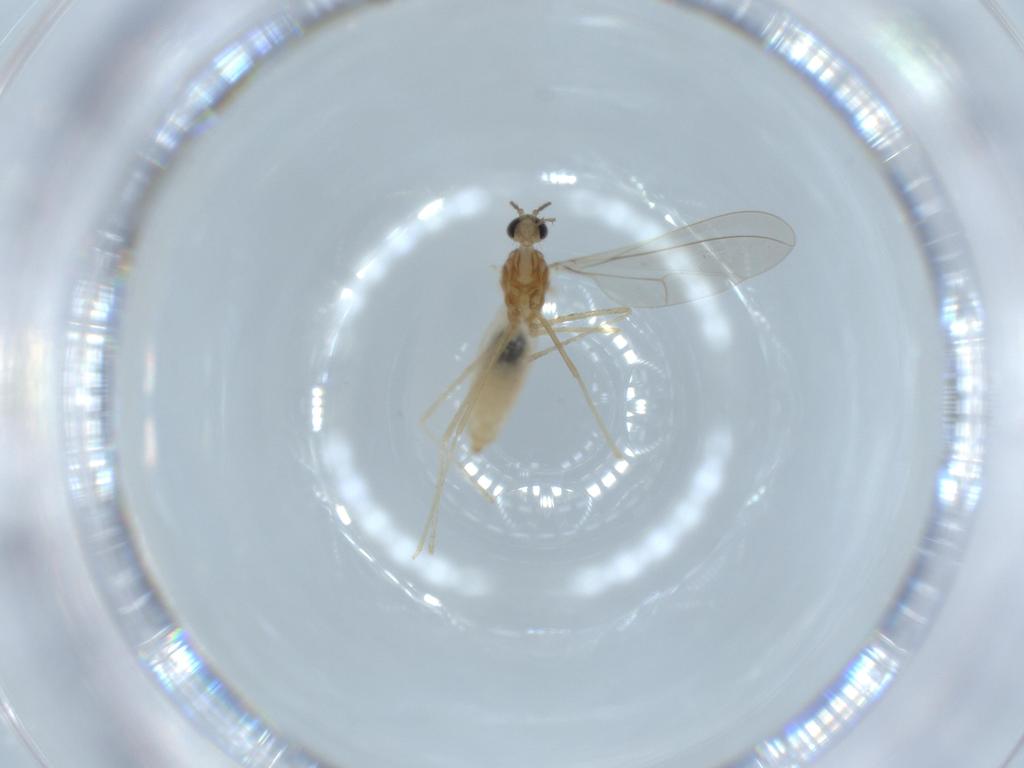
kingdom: Animalia
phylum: Arthropoda
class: Insecta
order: Diptera
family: Cecidomyiidae
